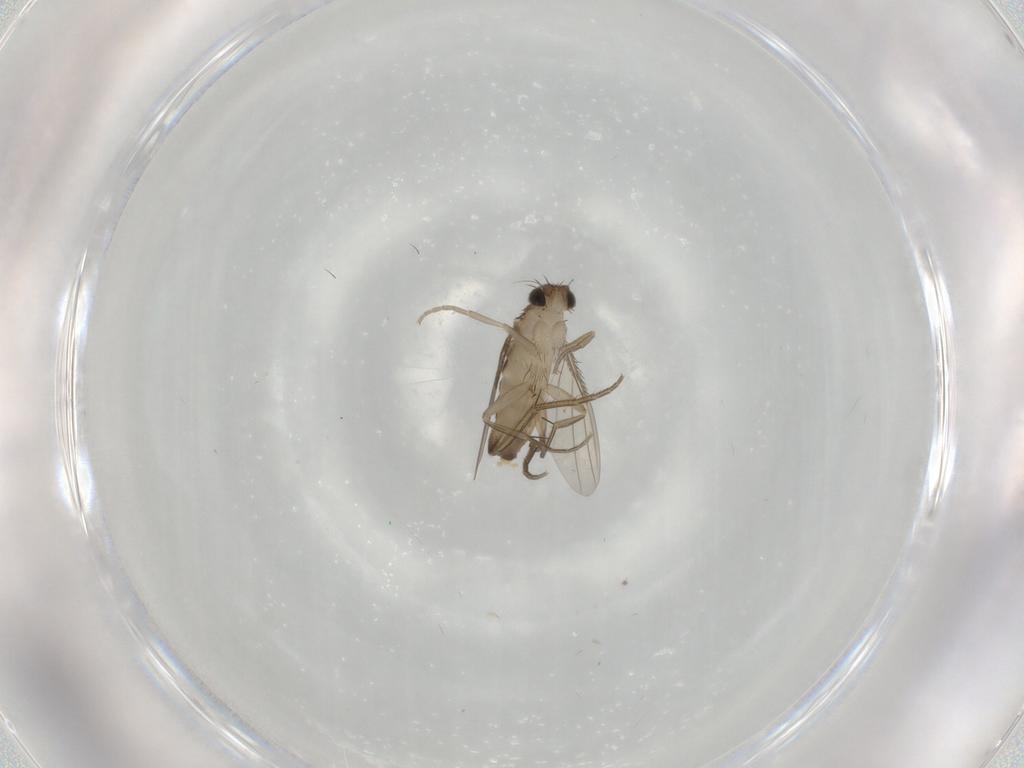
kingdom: Animalia
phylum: Arthropoda
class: Insecta
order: Diptera
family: Phoridae
